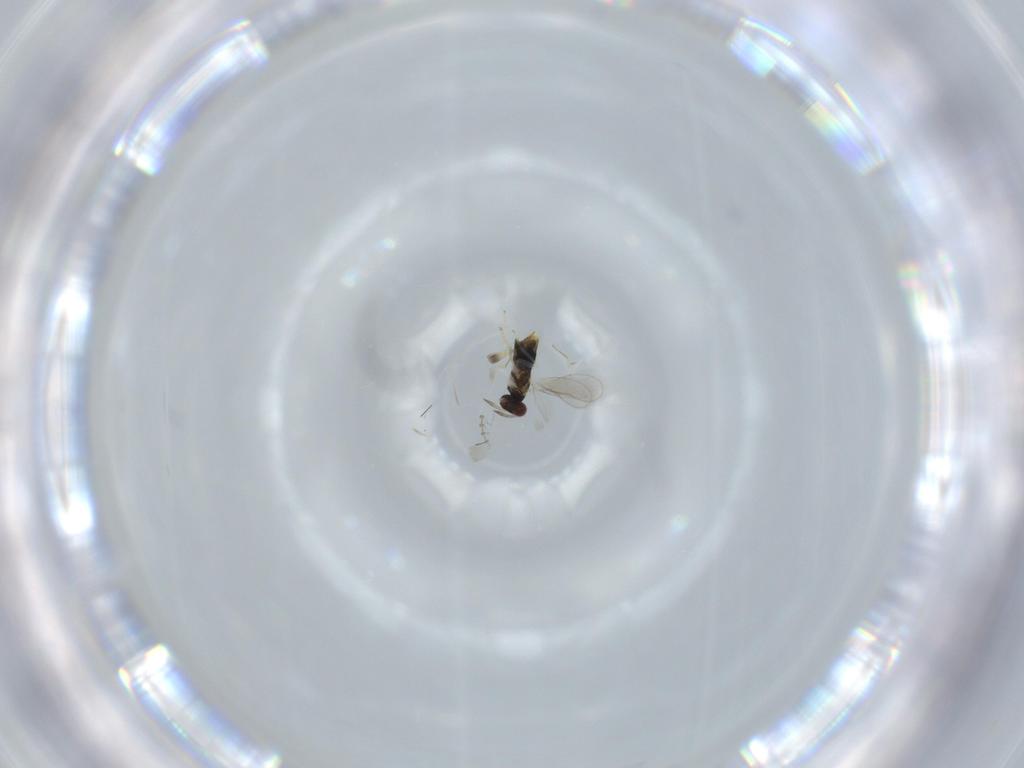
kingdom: Animalia
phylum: Arthropoda
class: Insecta
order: Hymenoptera
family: Aphelinidae
